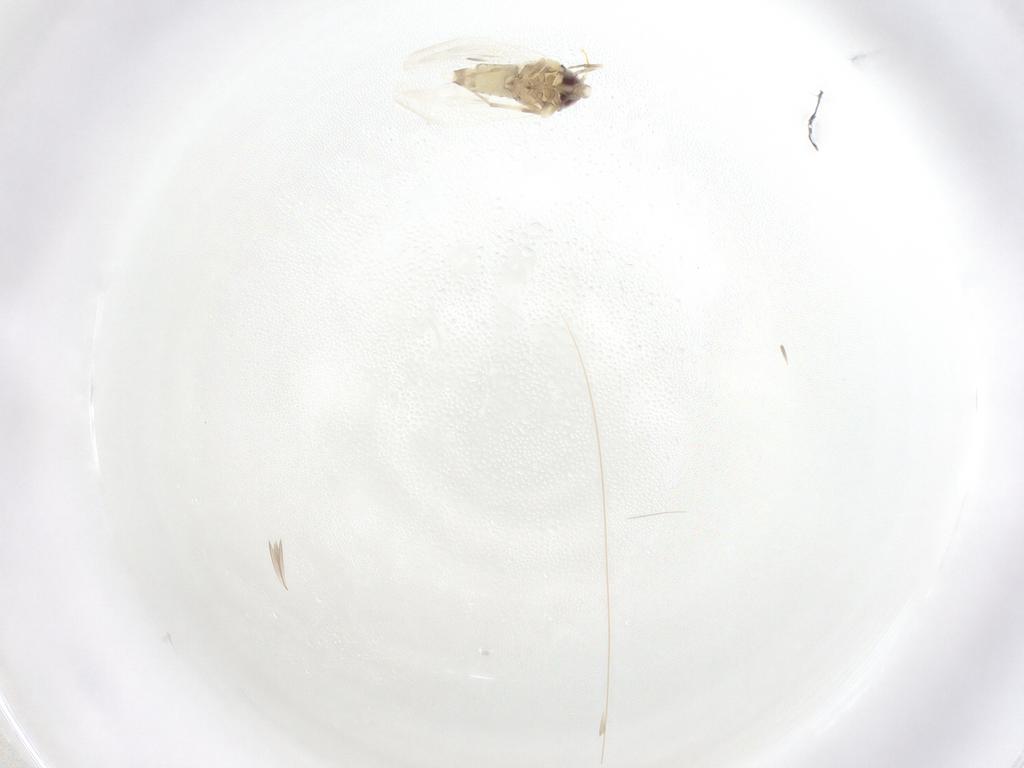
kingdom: Animalia
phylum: Arthropoda
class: Insecta
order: Hemiptera
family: Aleyrodidae
